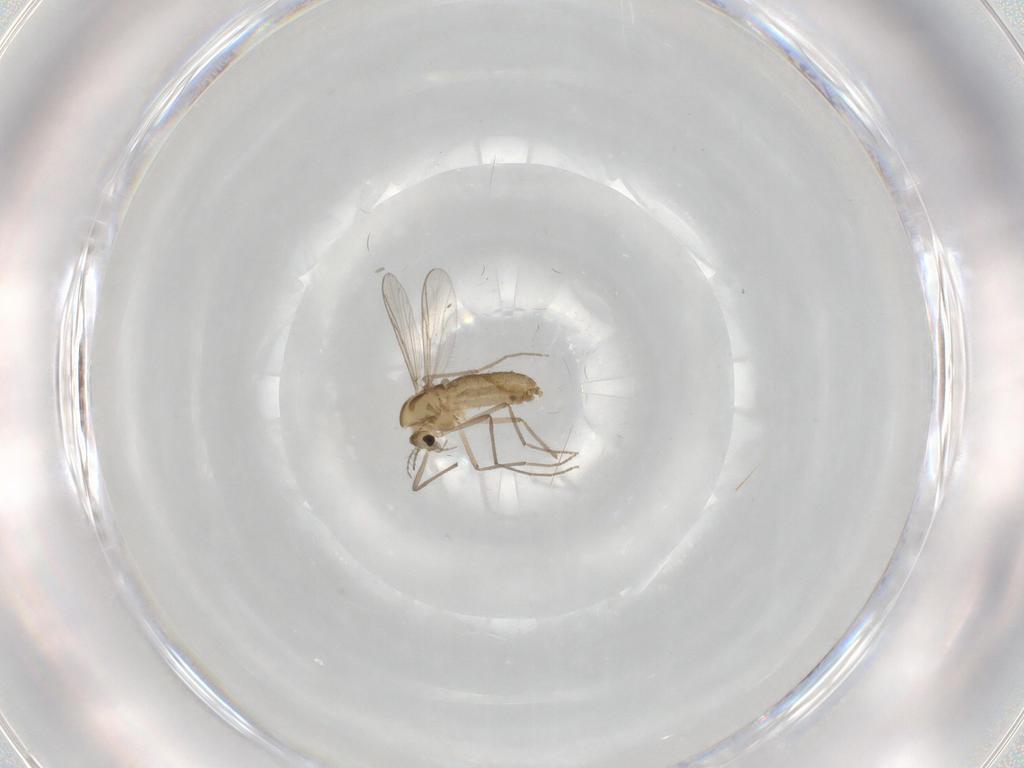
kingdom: Animalia
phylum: Arthropoda
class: Insecta
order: Diptera
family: Chironomidae
